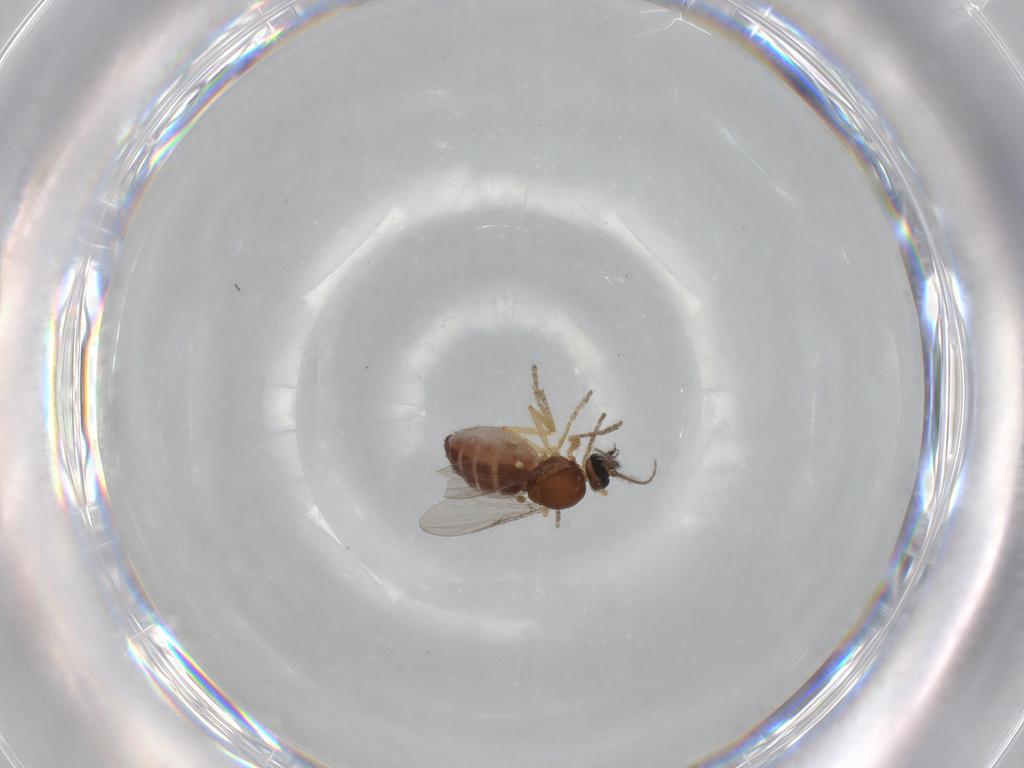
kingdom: Animalia
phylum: Arthropoda
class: Insecta
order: Diptera
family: Ceratopogonidae
